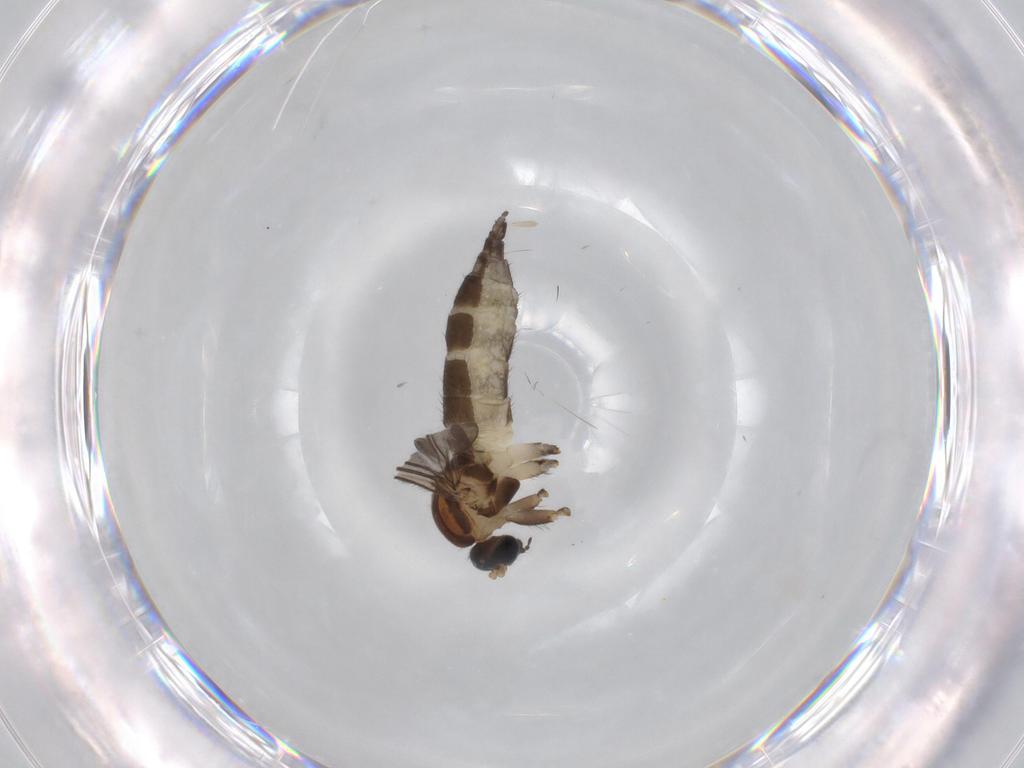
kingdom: Animalia
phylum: Arthropoda
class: Insecta
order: Diptera
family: Sciaridae
